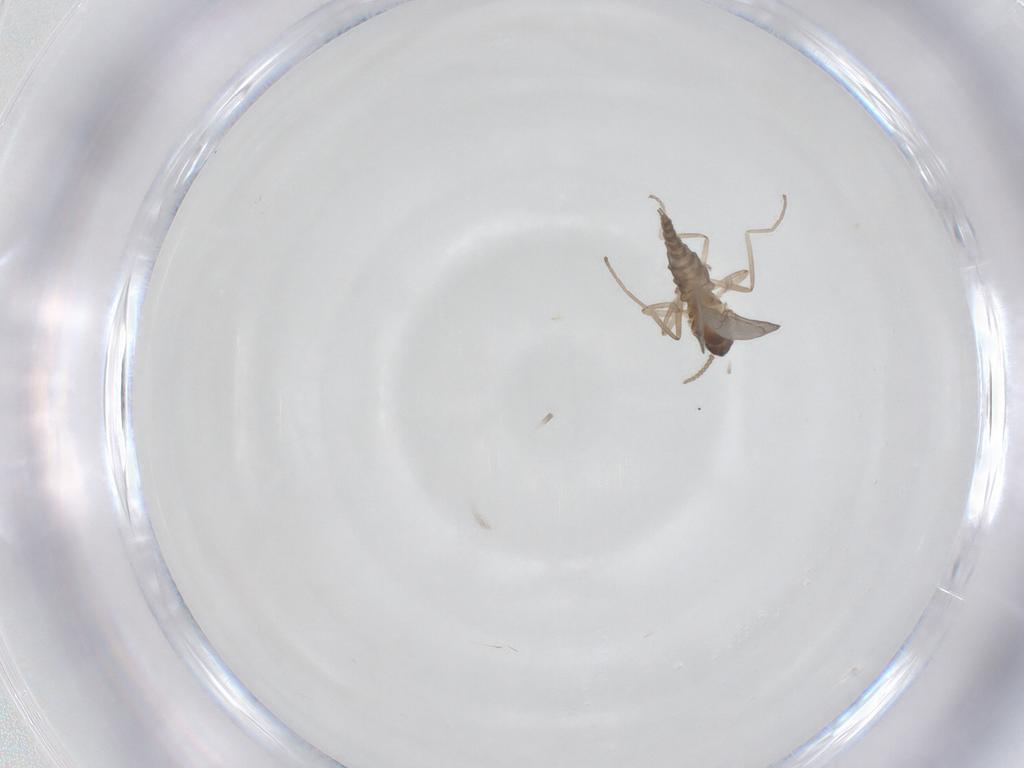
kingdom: Animalia
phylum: Arthropoda
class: Insecta
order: Diptera
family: Cecidomyiidae
